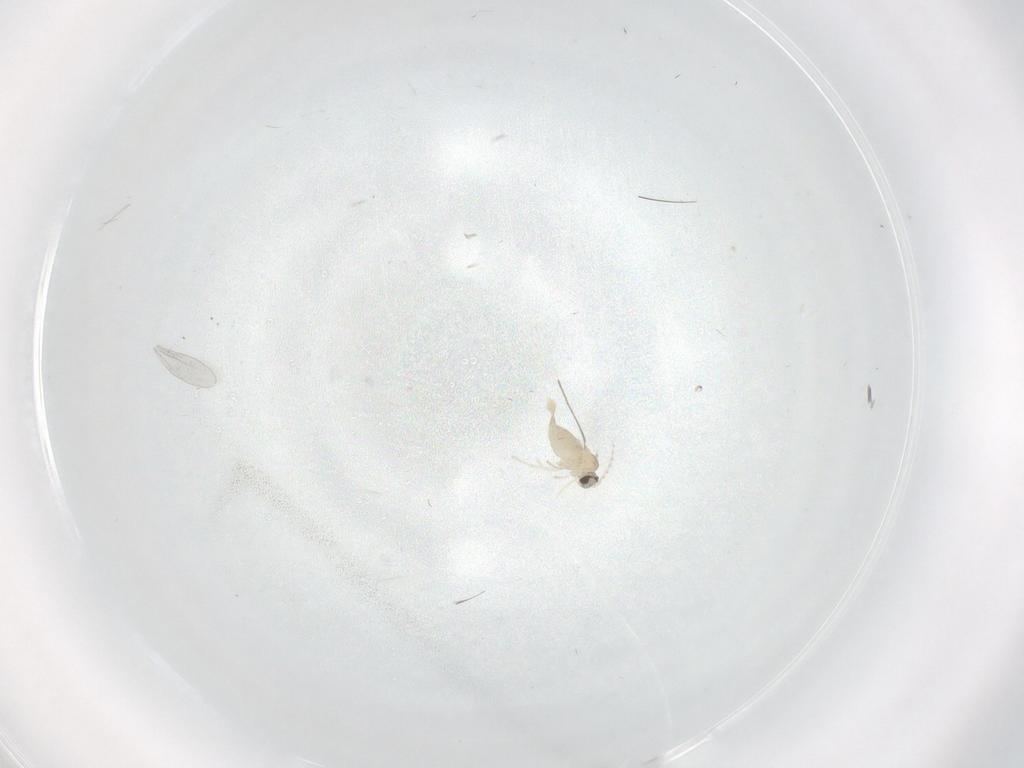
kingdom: Animalia
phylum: Arthropoda
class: Insecta
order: Diptera
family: Cecidomyiidae
